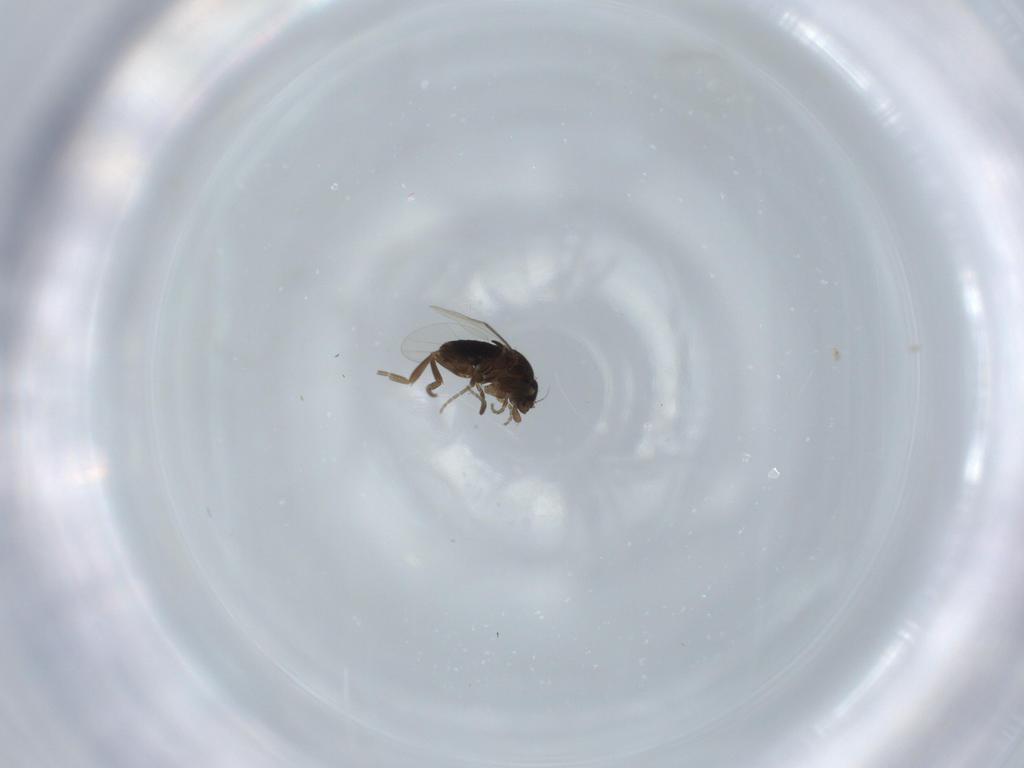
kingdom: Animalia
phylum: Arthropoda
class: Insecta
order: Diptera
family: Phoridae
